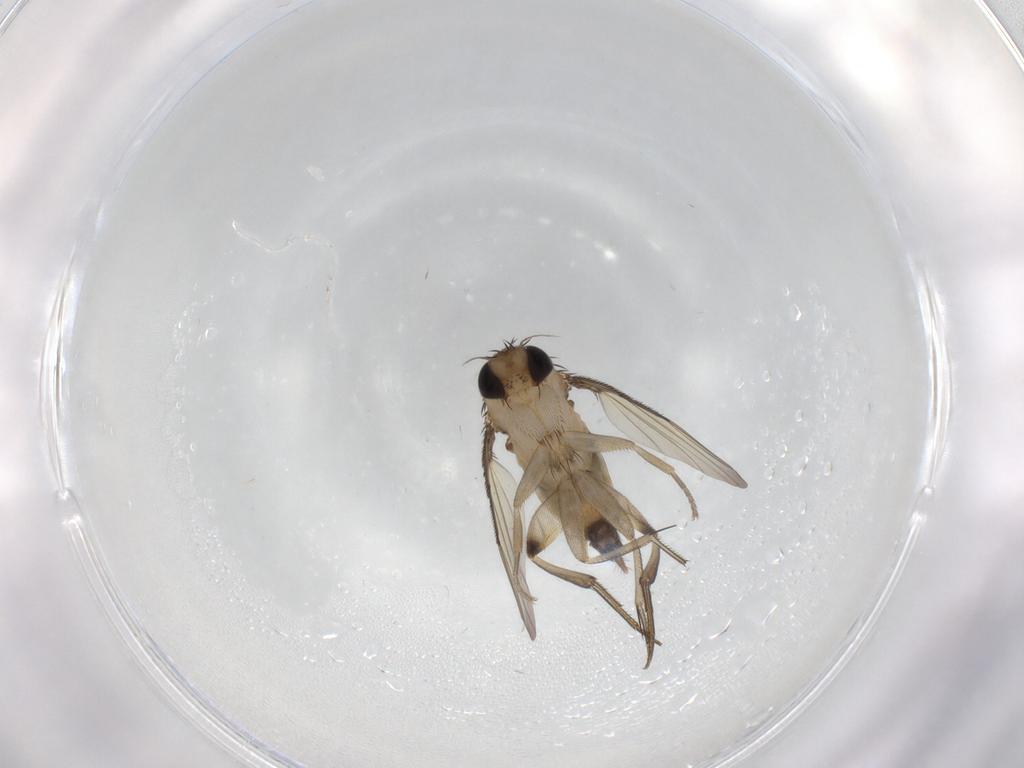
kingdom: Animalia
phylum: Arthropoda
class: Insecta
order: Diptera
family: Phoridae
